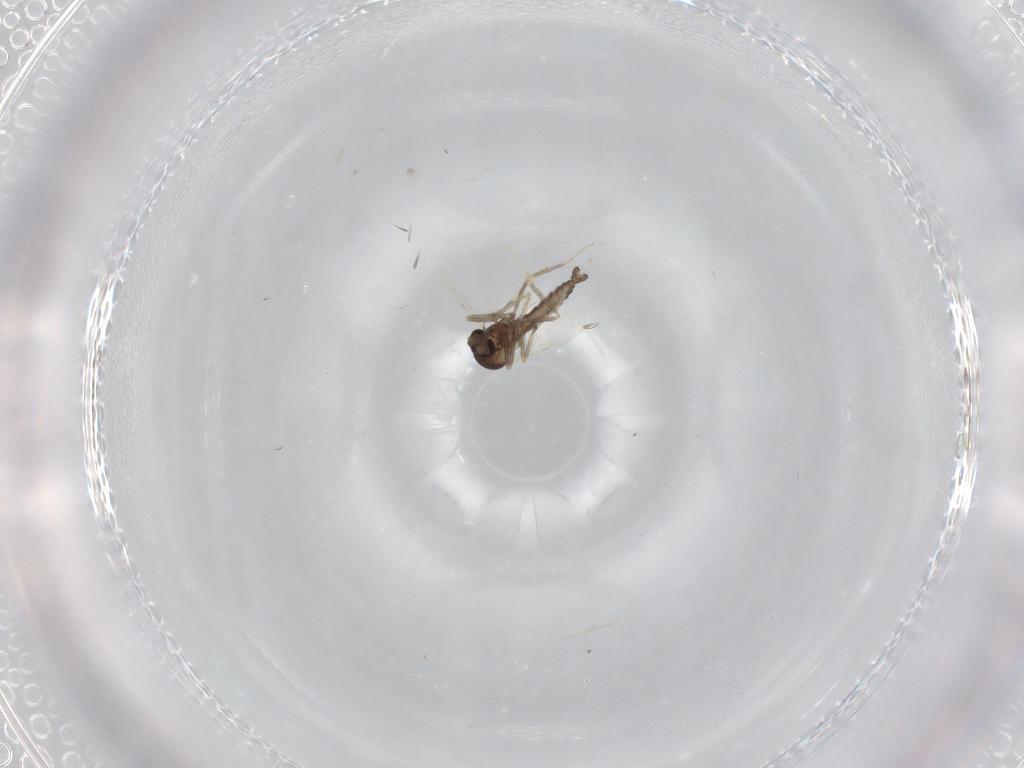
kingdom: Animalia
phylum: Arthropoda
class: Insecta
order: Diptera
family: Ceratopogonidae
